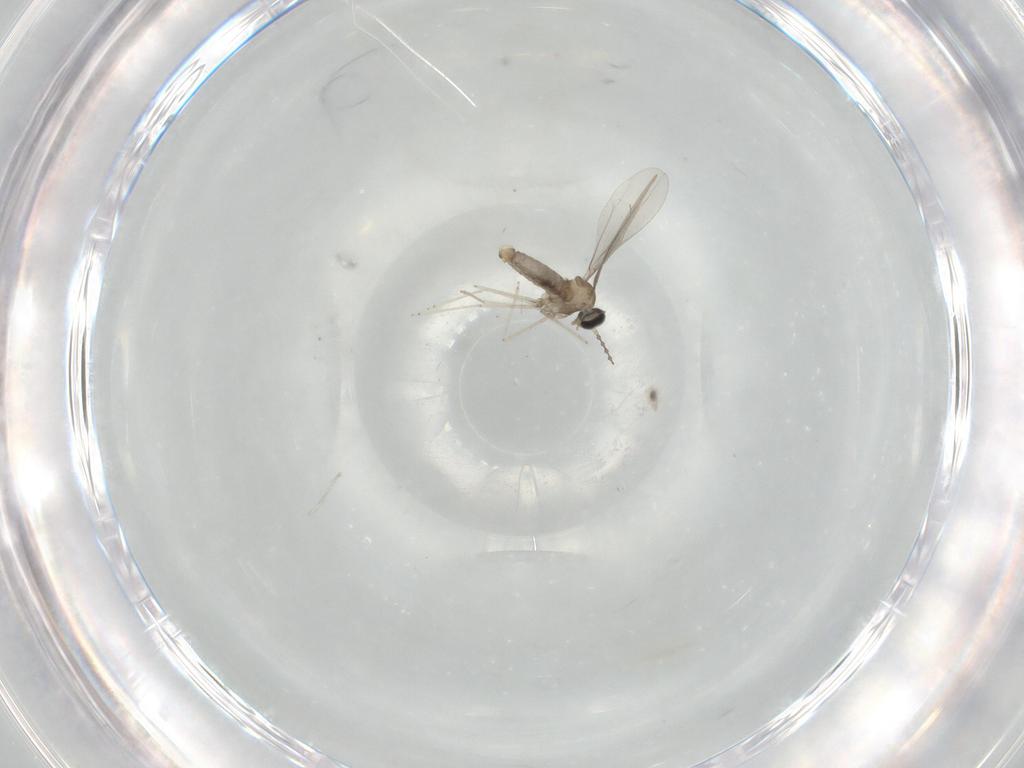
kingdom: Animalia
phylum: Arthropoda
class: Insecta
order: Diptera
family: Cecidomyiidae
